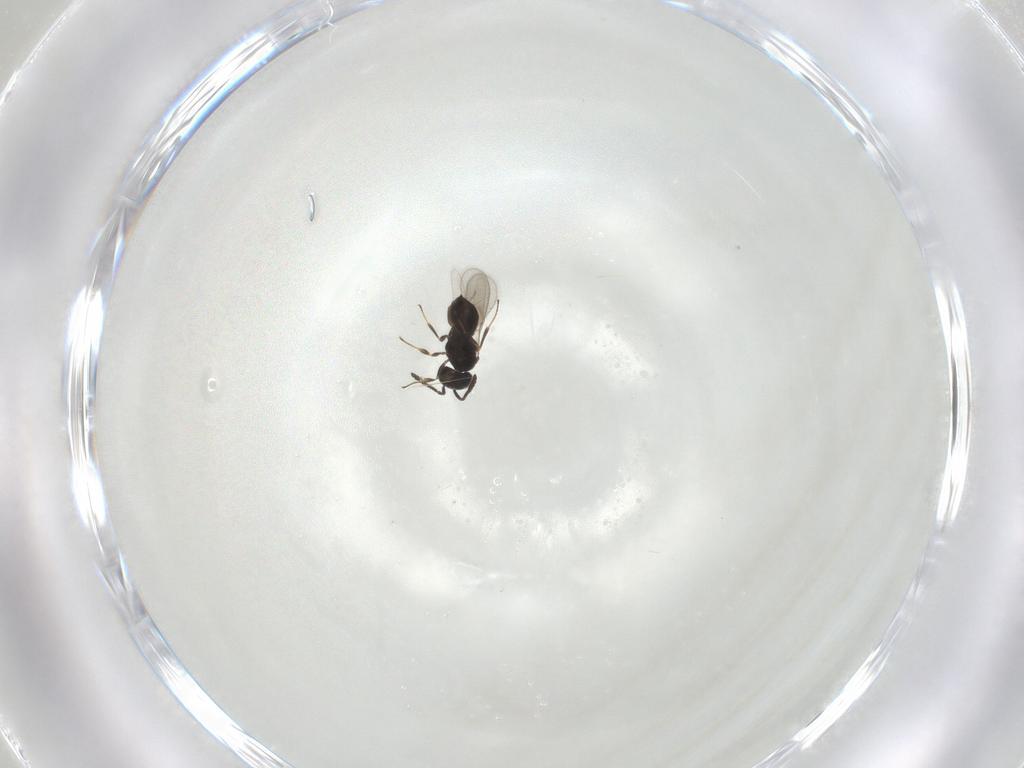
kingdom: Animalia
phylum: Arthropoda
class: Insecta
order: Hymenoptera
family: Scelionidae
